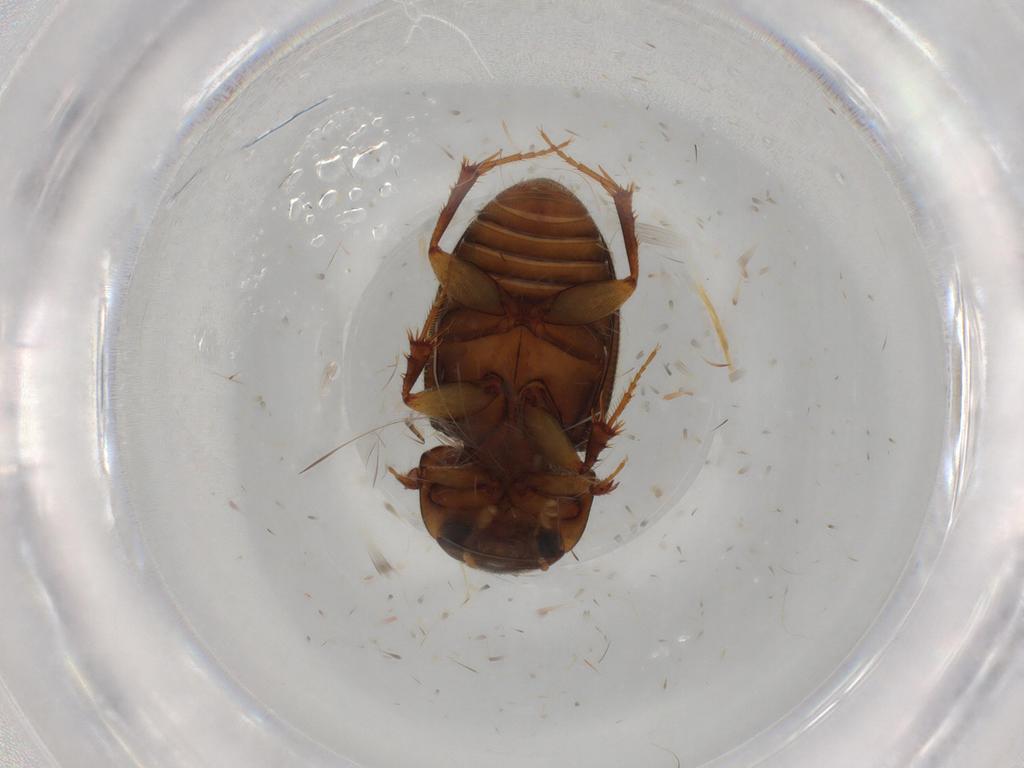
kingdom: Animalia
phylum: Arthropoda
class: Insecta
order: Coleoptera
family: Scarabaeidae
